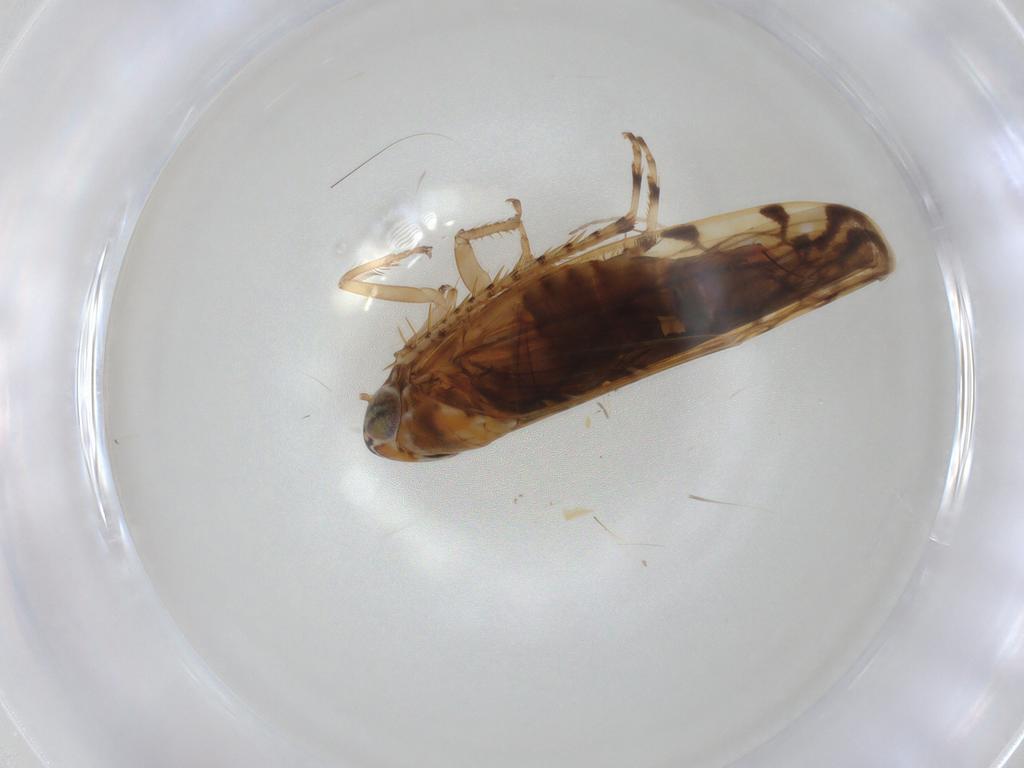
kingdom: Animalia
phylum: Arthropoda
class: Insecta
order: Hemiptera
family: Cicadellidae
